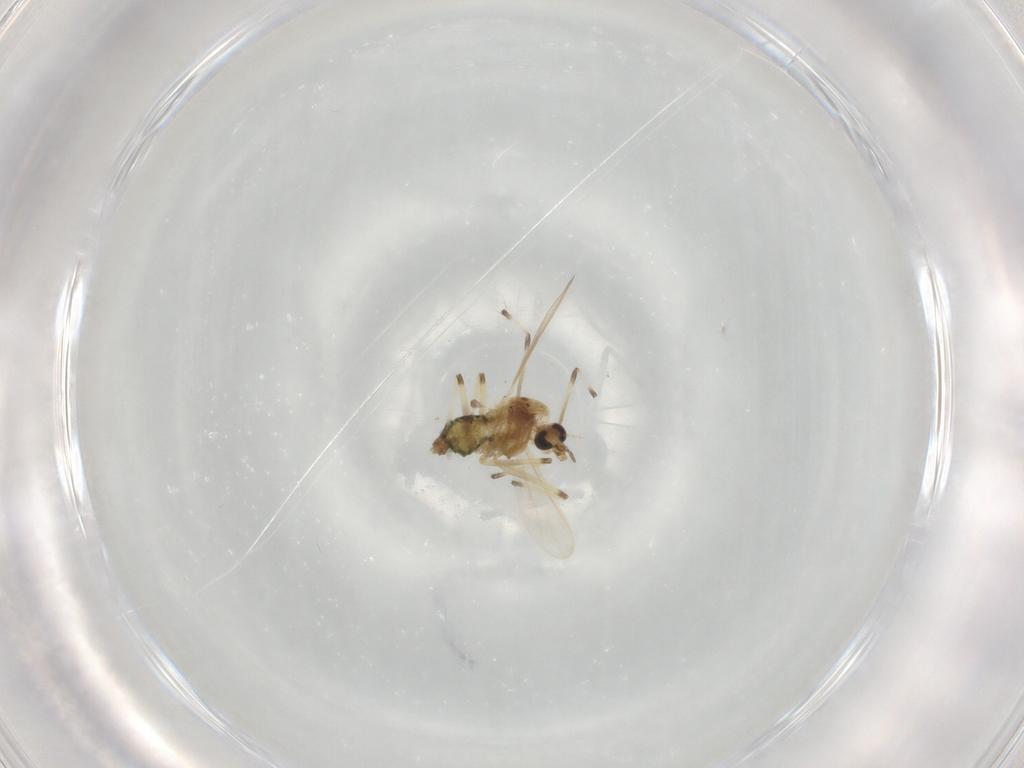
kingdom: Animalia
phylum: Arthropoda
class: Insecta
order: Diptera
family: Chironomidae
